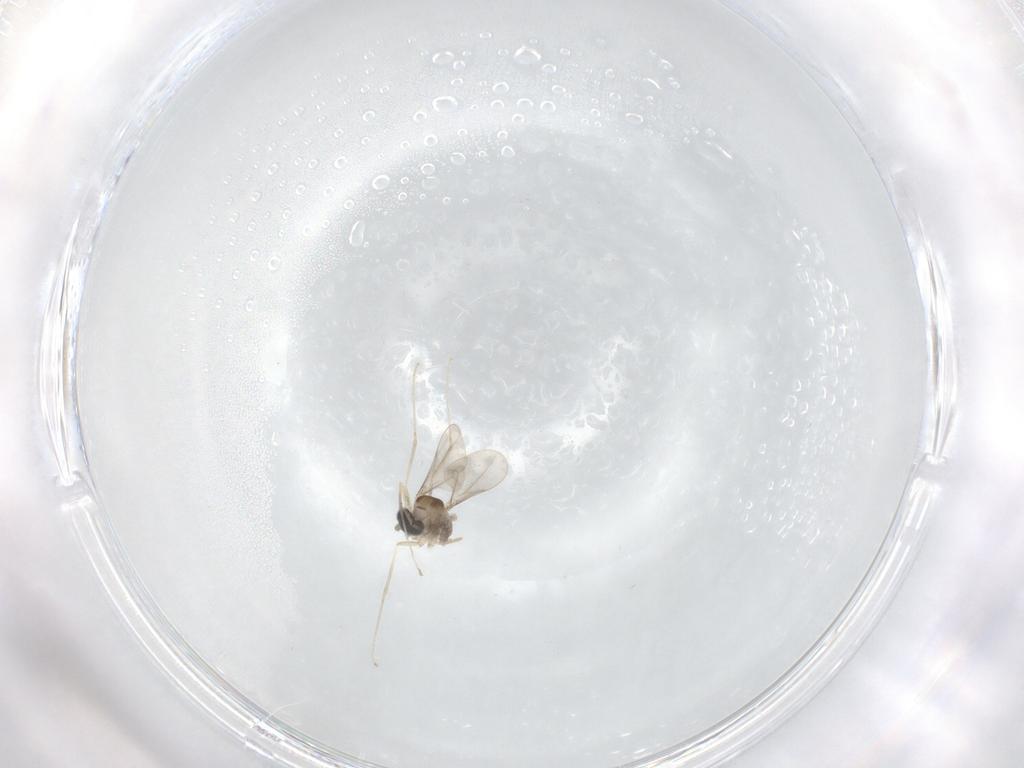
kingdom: Animalia
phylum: Arthropoda
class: Insecta
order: Diptera
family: Cecidomyiidae
